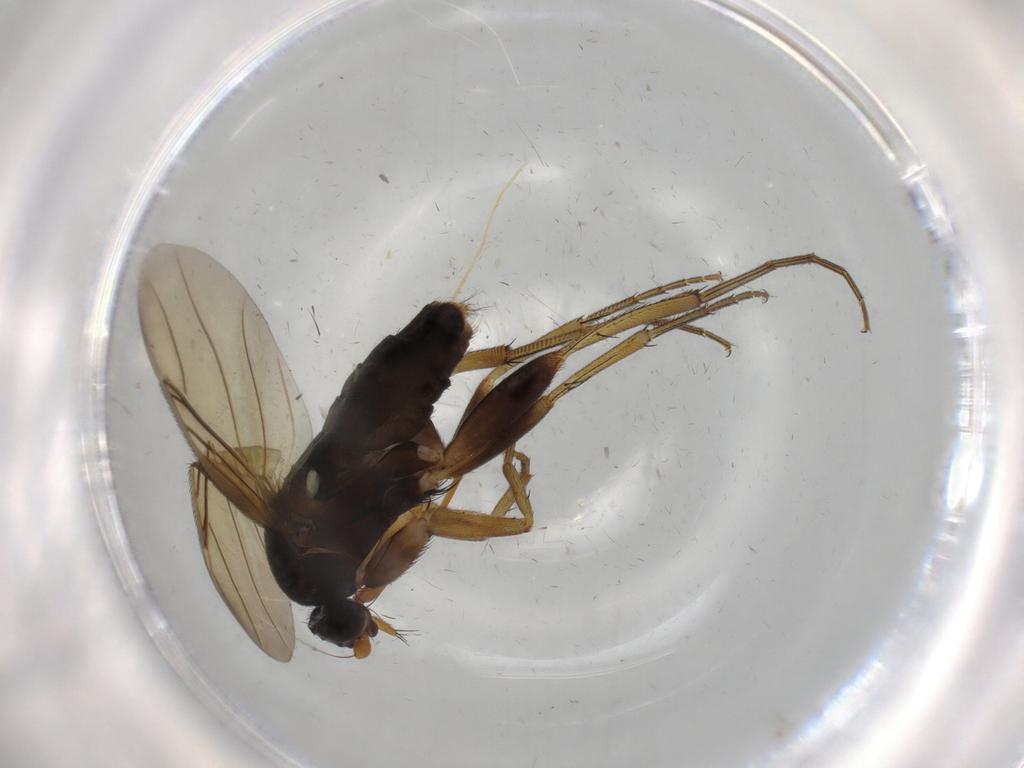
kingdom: Animalia
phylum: Arthropoda
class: Insecta
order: Diptera
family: Phoridae
